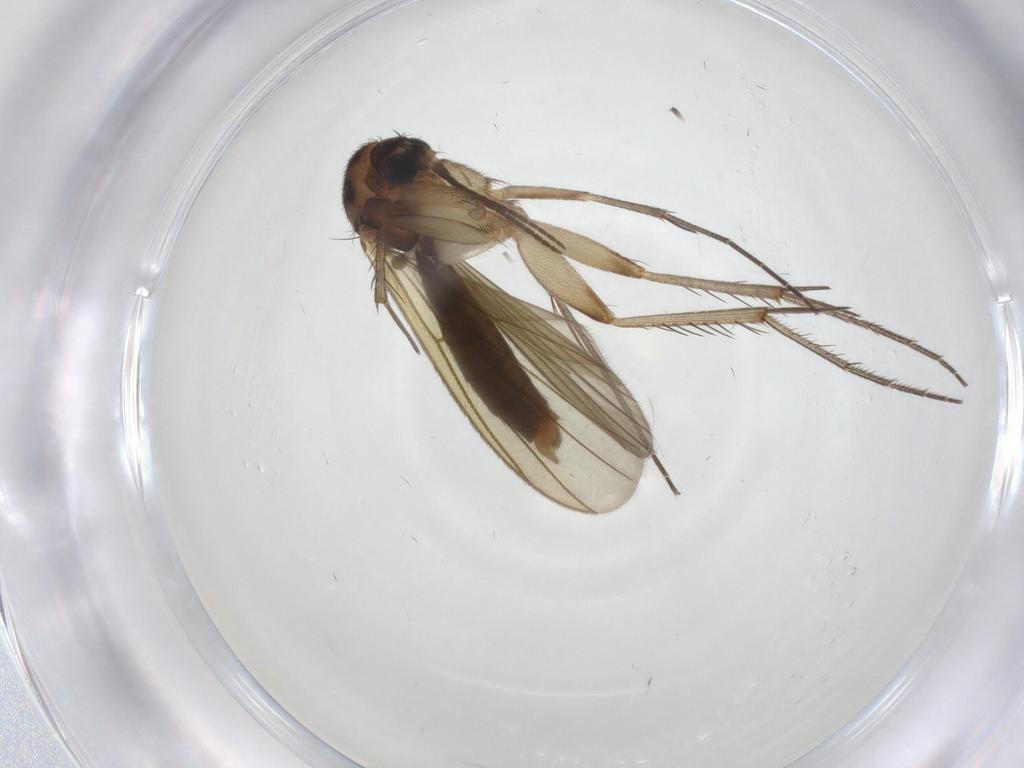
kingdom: Animalia
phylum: Arthropoda
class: Insecta
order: Diptera
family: Mycetophilidae
